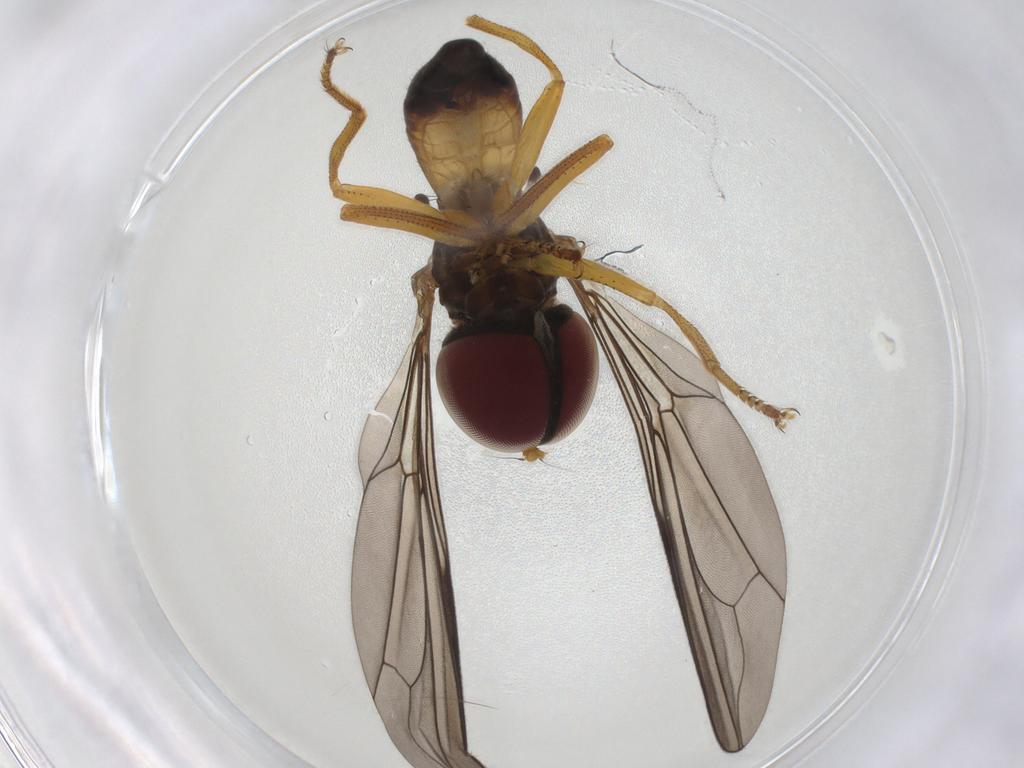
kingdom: Animalia
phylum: Arthropoda
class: Insecta
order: Diptera
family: Pipunculidae
